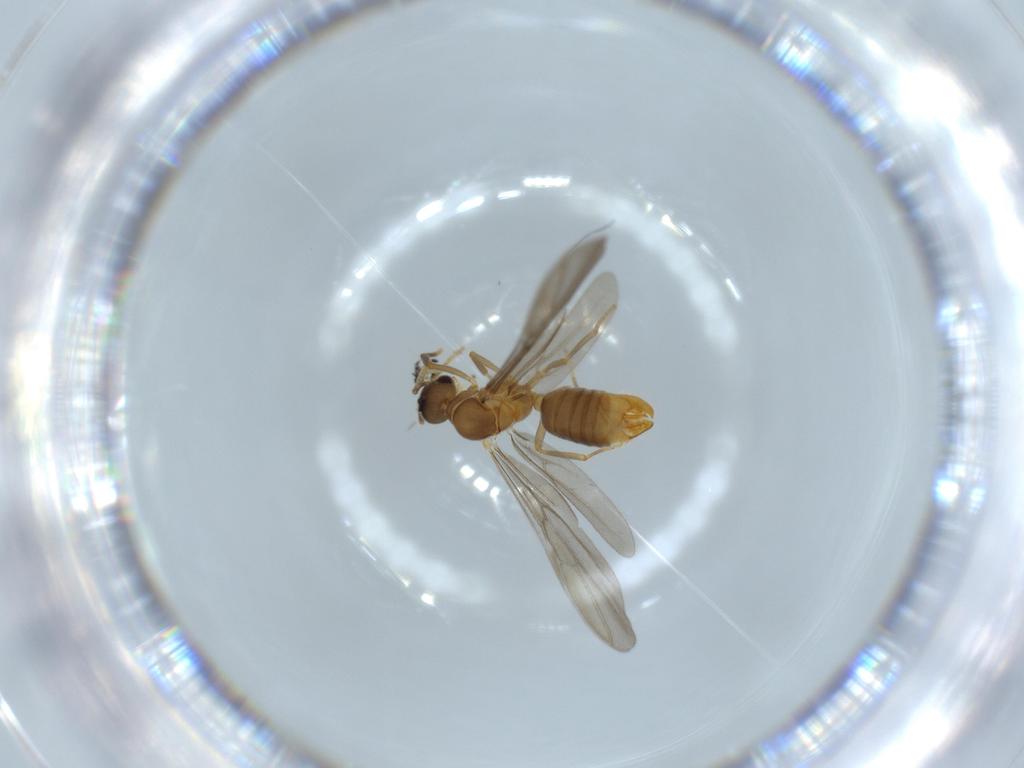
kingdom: Animalia
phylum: Arthropoda
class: Insecta
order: Hymenoptera
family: Formicidae
